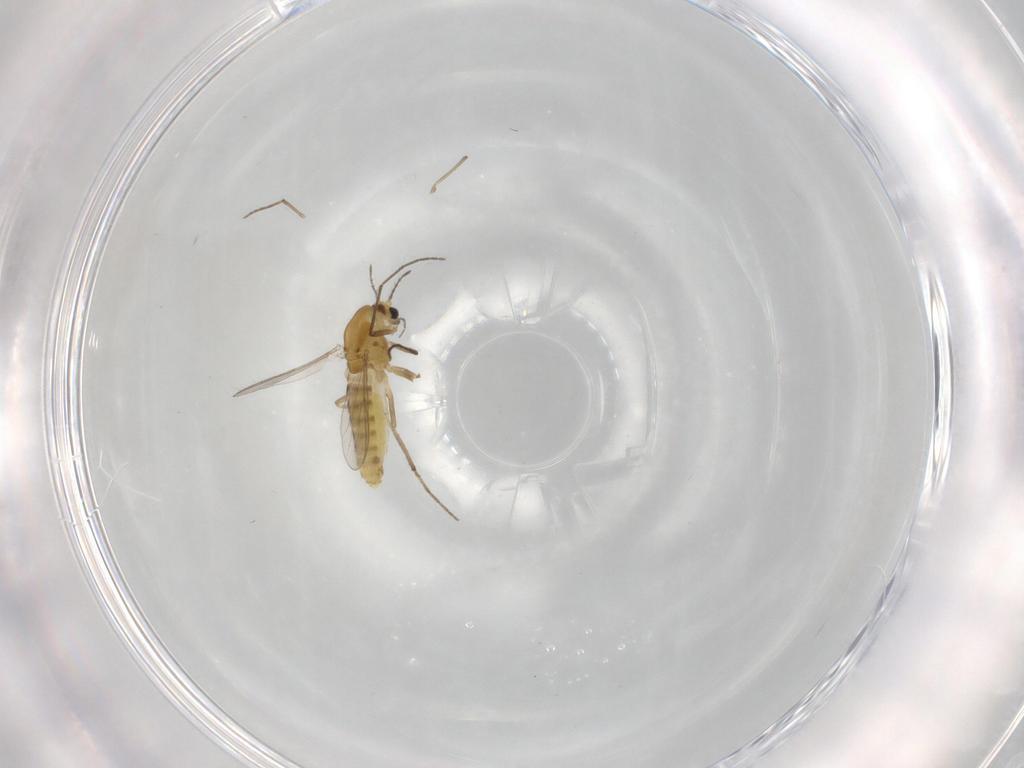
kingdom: Animalia
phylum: Arthropoda
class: Insecta
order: Diptera
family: Chironomidae
